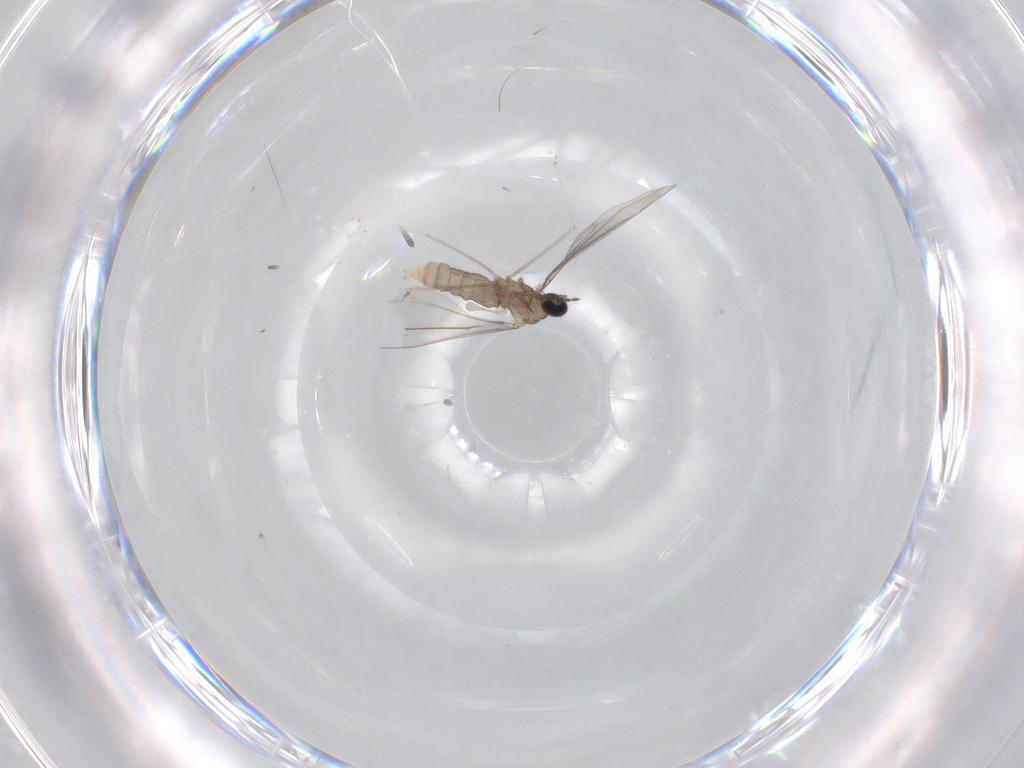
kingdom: Animalia
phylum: Arthropoda
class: Insecta
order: Diptera
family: Cecidomyiidae
